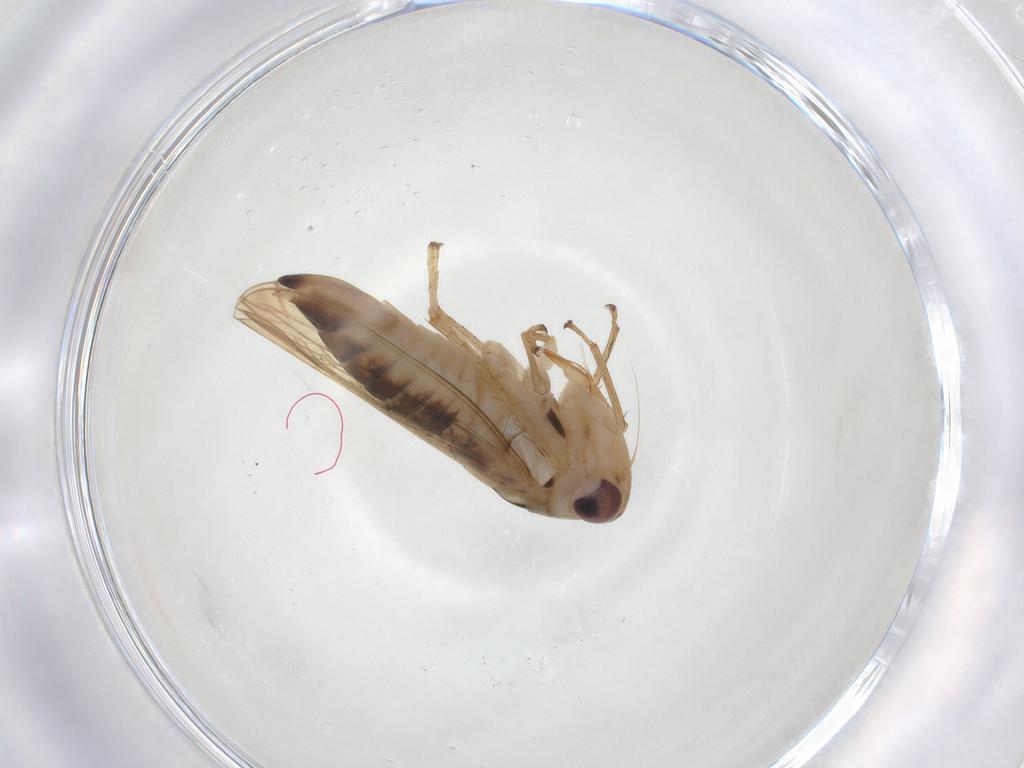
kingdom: Animalia
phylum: Arthropoda
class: Insecta
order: Hemiptera
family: Cicadellidae
